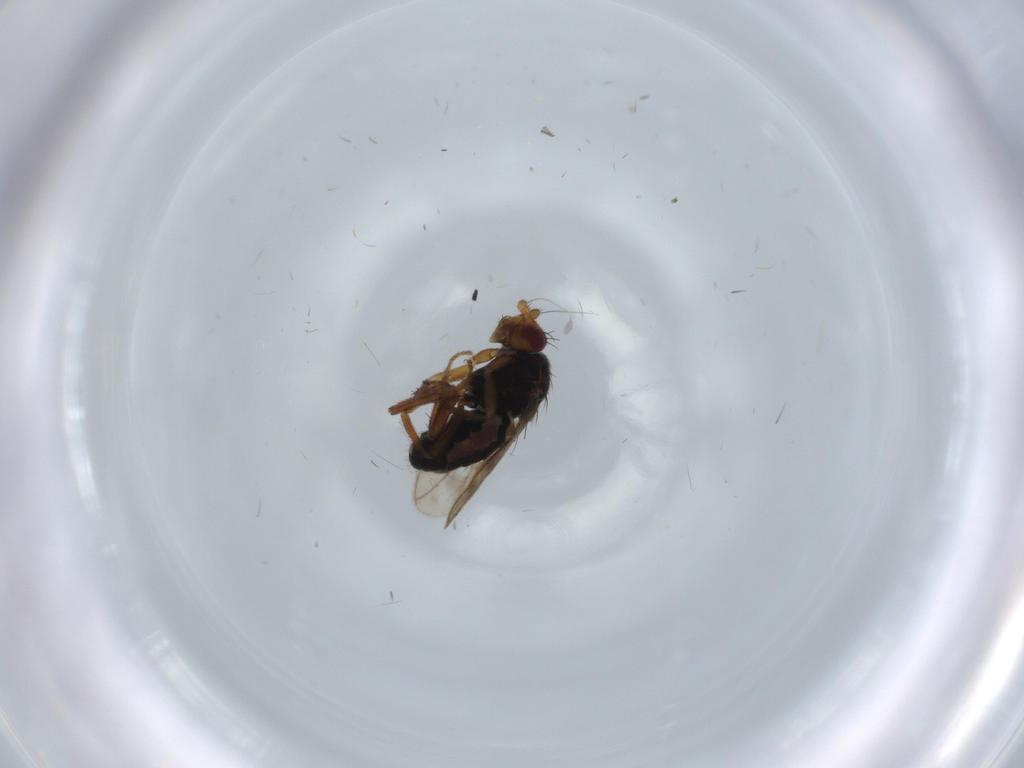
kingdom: Animalia
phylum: Arthropoda
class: Insecta
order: Diptera
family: Sphaeroceridae
